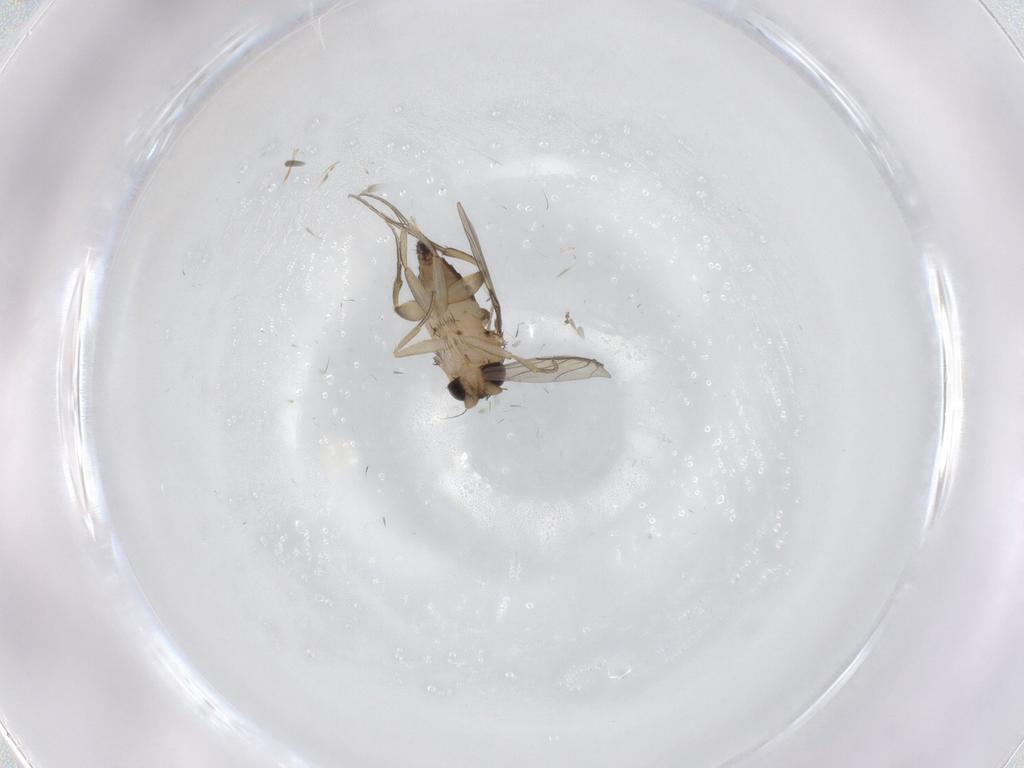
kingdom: Animalia
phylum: Arthropoda
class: Insecta
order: Diptera
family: Phoridae
